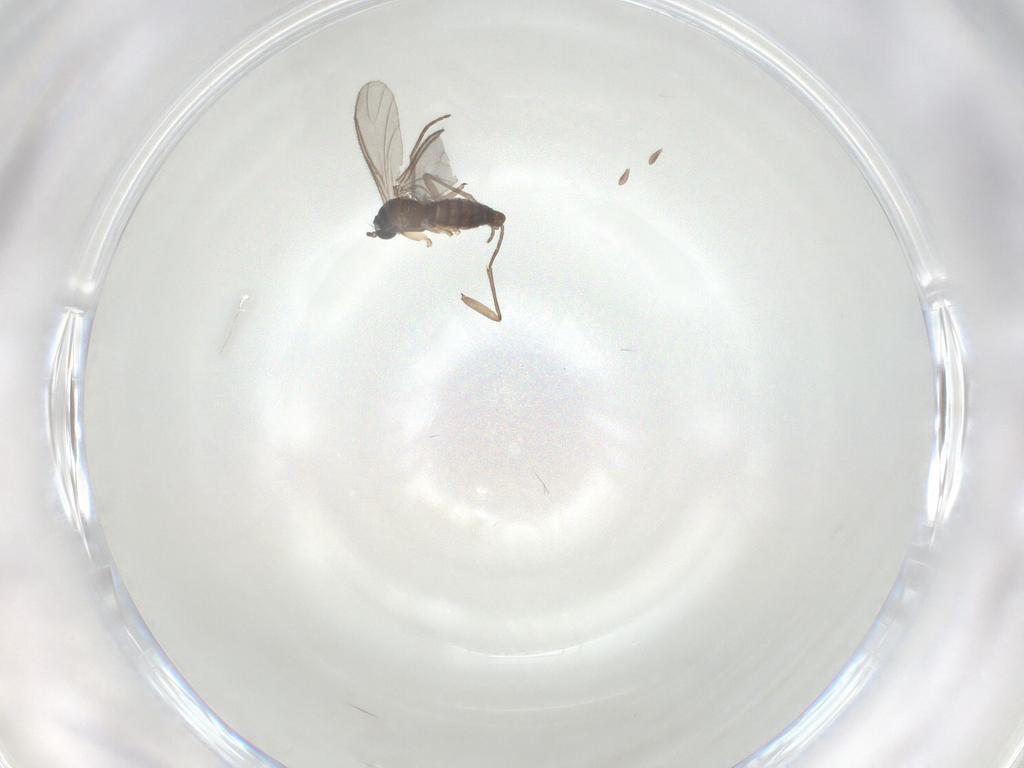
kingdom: Animalia
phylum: Arthropoda
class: Insecta
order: Diptera
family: Sciaridae
